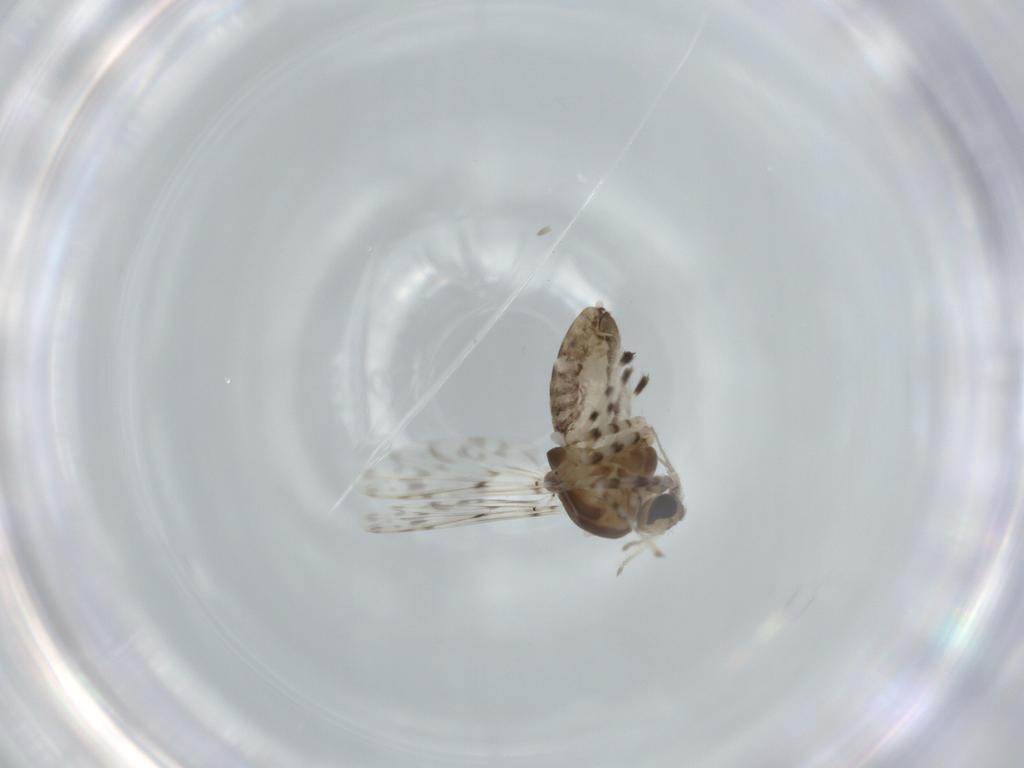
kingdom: Animalia
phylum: Arthropoda
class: Insecta
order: Diptera
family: Chironomidae
